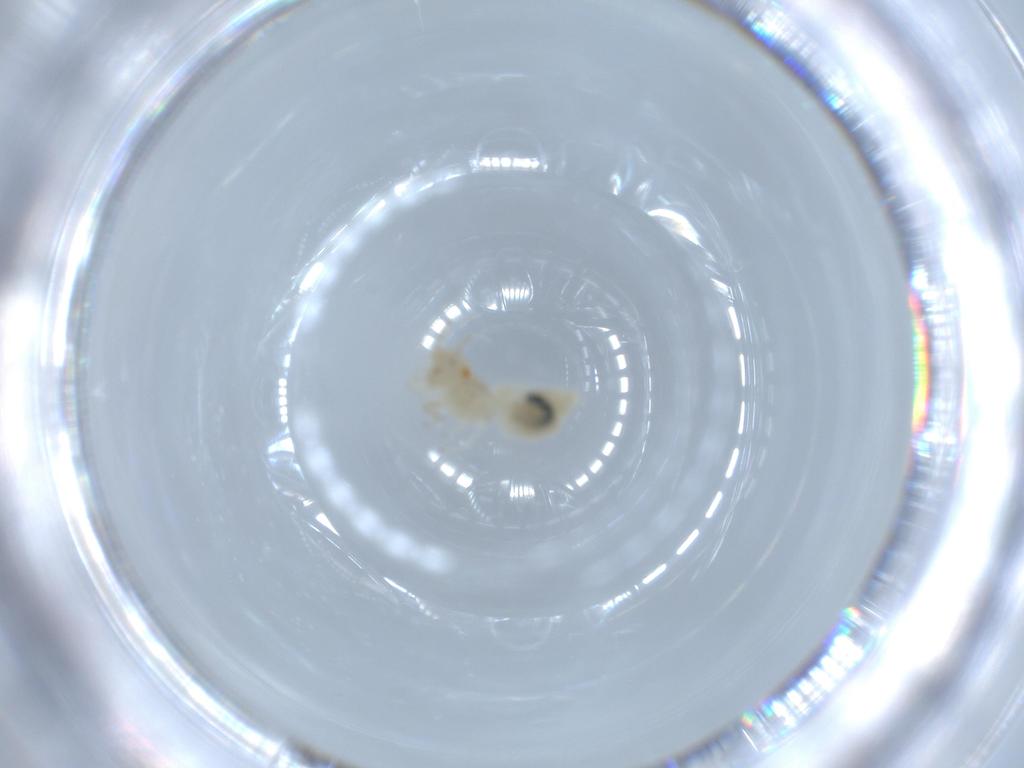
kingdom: Animalia
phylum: Arthropoda
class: Insecta
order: Psocodea
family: Caeciliusidae
